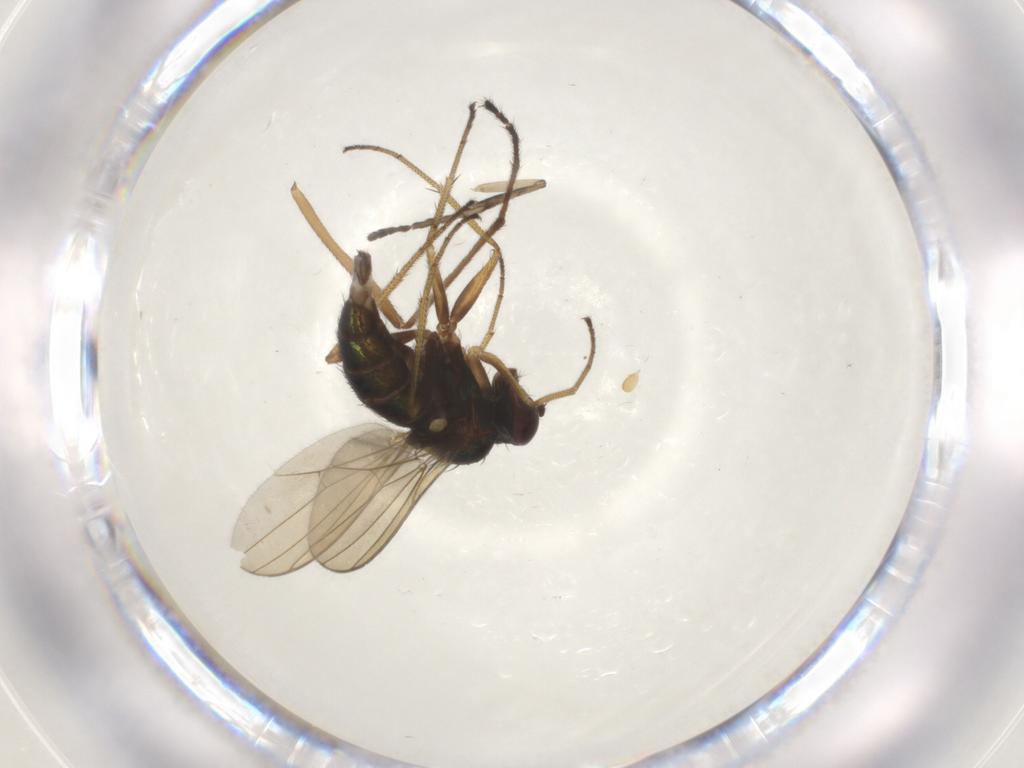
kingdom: Animalia
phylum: Arthropoda
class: Insecta
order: Diptera
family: Dolichopodidae
